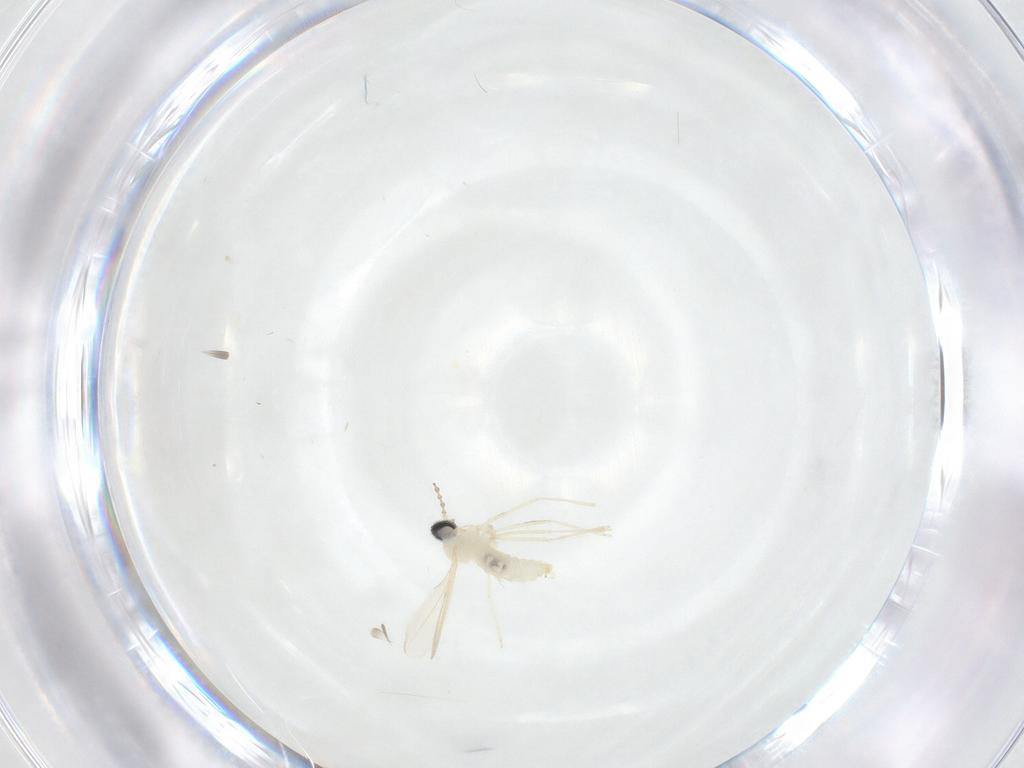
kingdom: Animalia
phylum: Arthropoda
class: Insecta
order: Diptera
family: Cecidomyiidae
